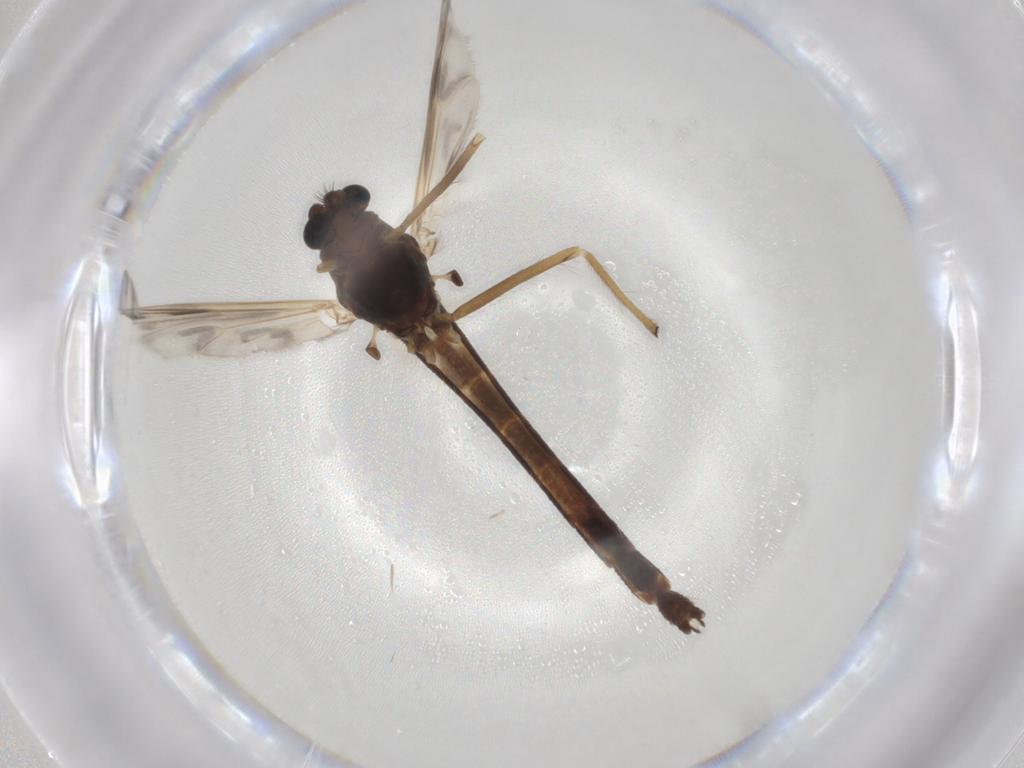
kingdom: Animalia
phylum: Arthropoda
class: Insecta
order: Diptera
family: Chironomidae
